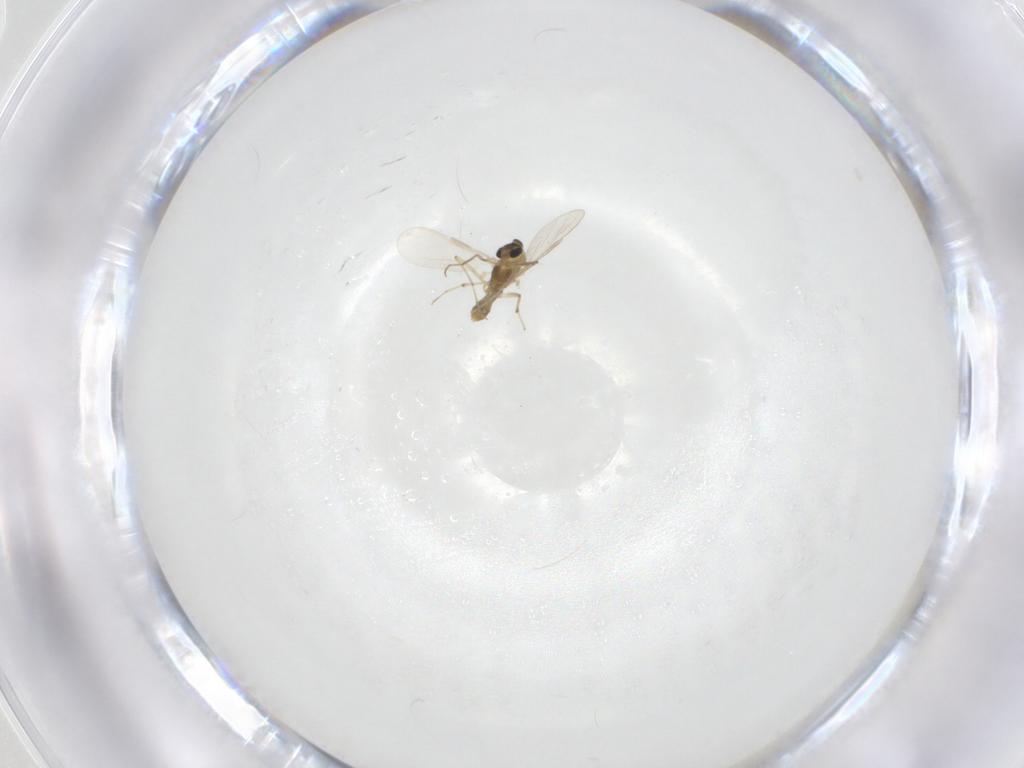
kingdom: Animalia
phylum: Arthropoda
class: Insecta
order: Diptera
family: Chironomidae
